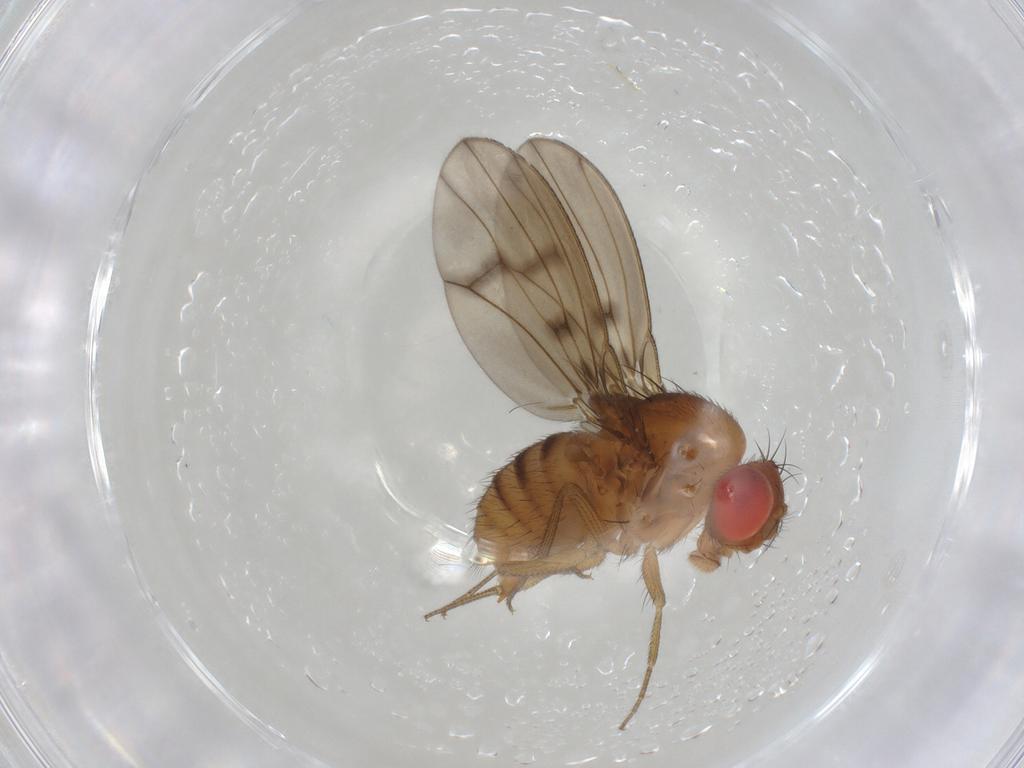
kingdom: Animalia
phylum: Arthropoda
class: Insecta
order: Diptera
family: Drosophilidae
